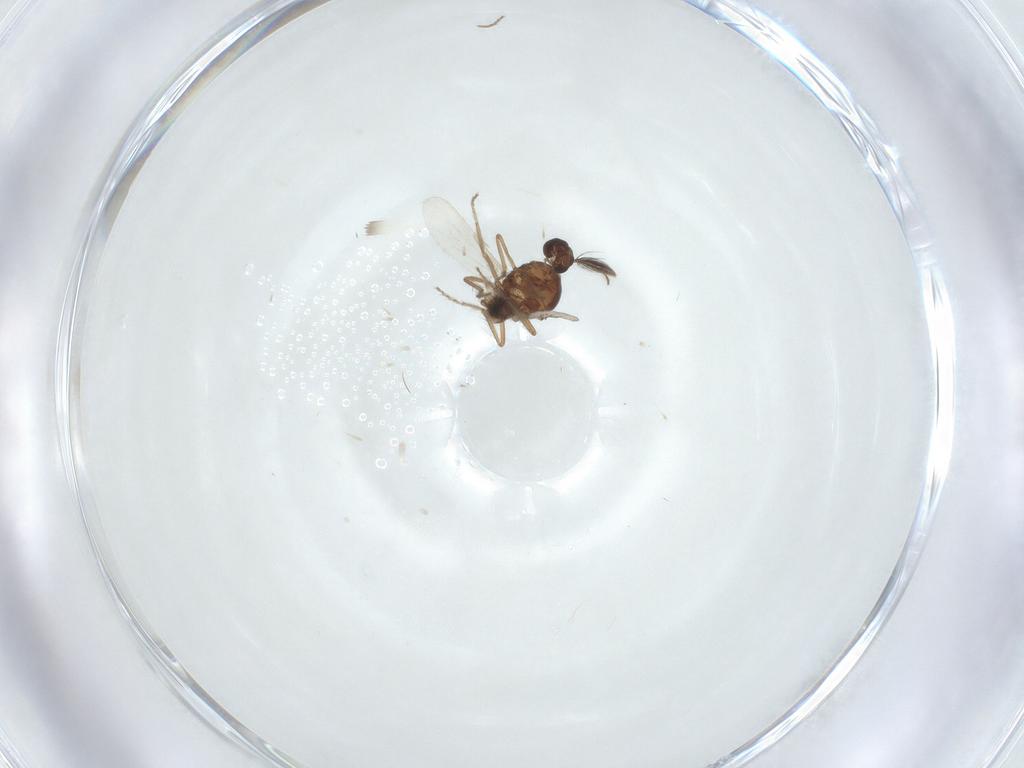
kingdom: Animalia
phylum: Arthropoda
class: Insecta
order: Diptera
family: Ceratopogonidae
